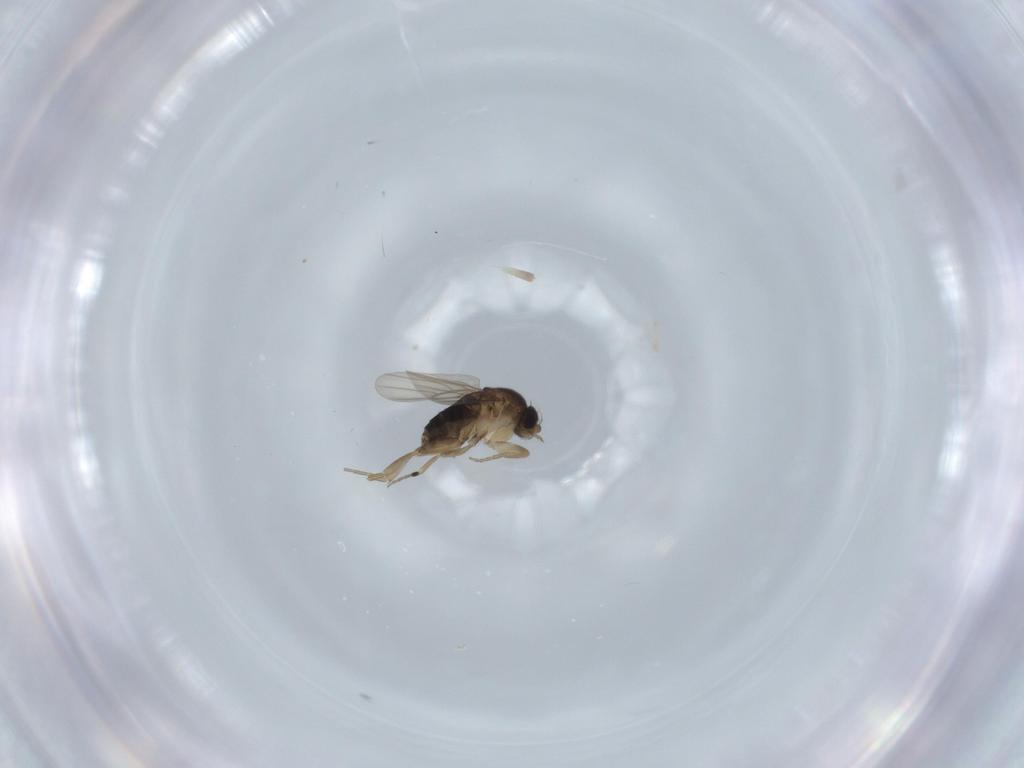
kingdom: Animalia
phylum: Arthropoda
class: Insecta
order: Diptera
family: Phoridae
